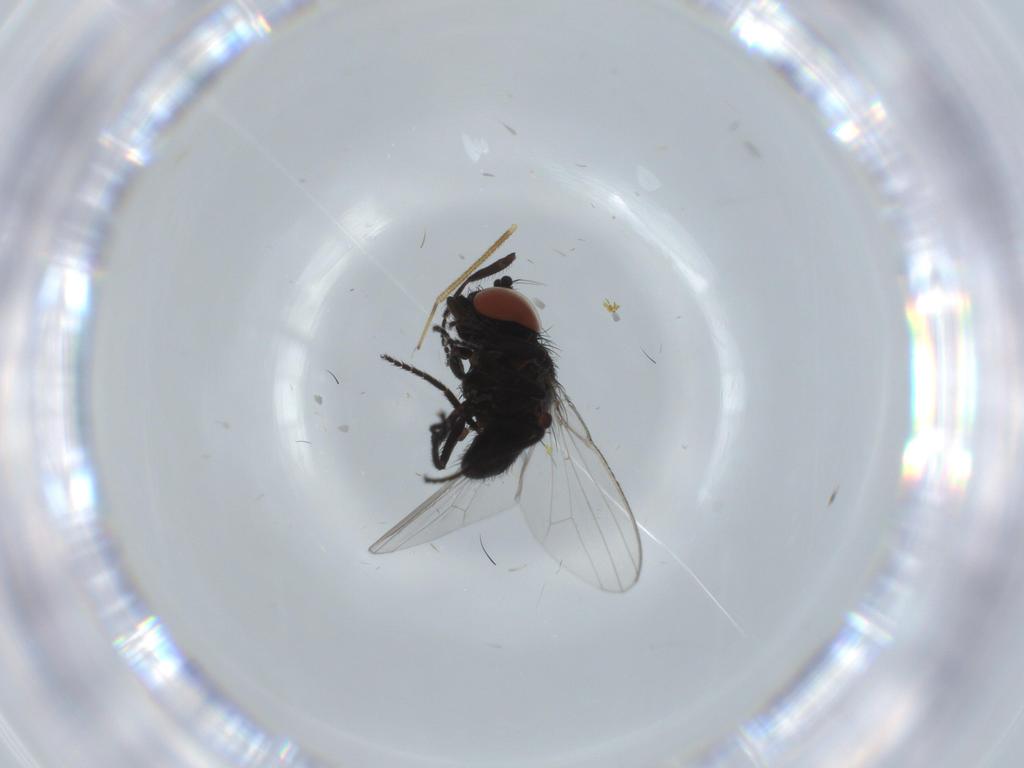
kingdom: Animalia
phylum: Arthropoda
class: Insecta
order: Diptera
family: Milichiidae
